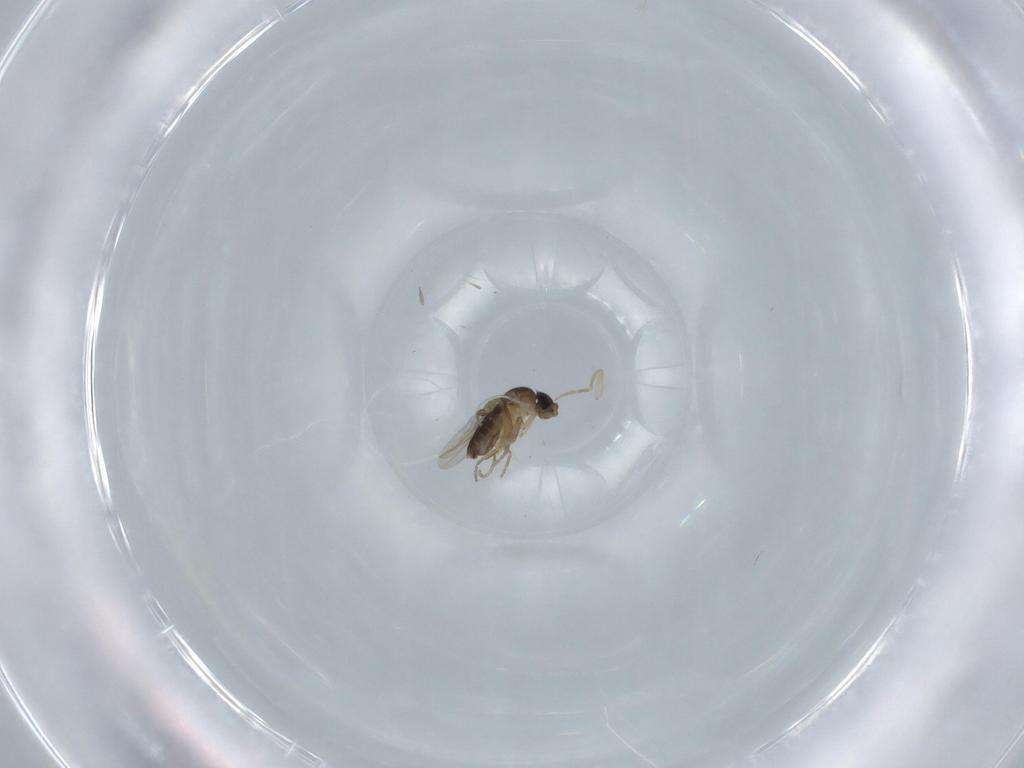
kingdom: Animalia
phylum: Arthropoda
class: Insecta
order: Diptera
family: Phoridae
